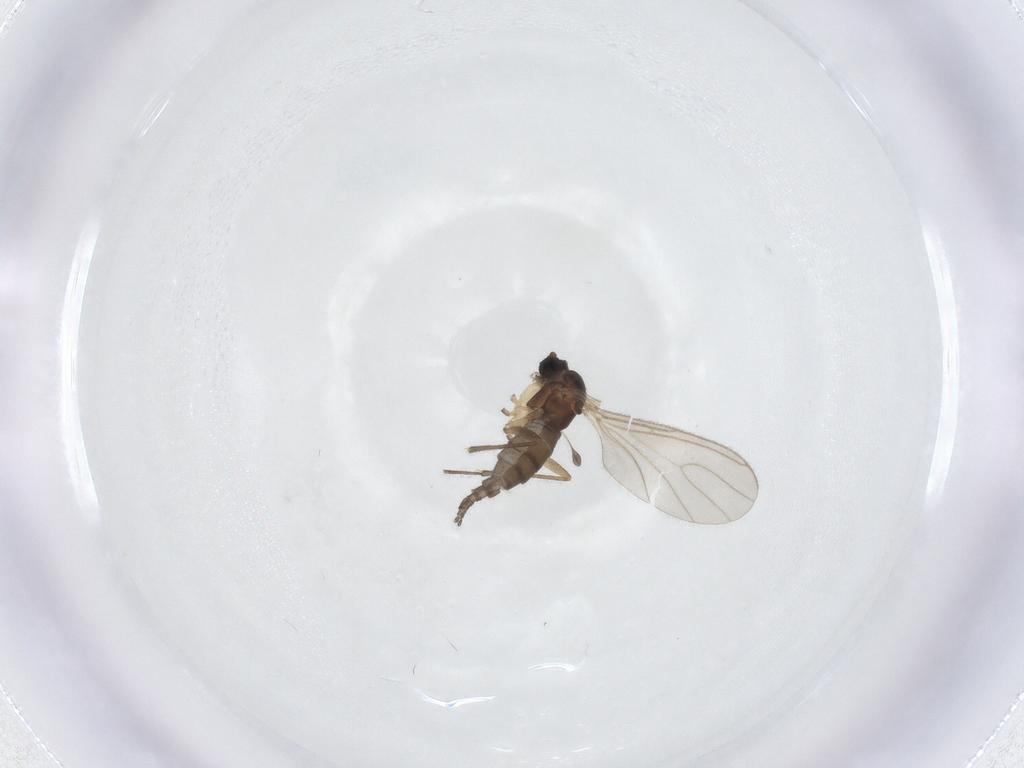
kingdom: Animalia
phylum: Arthropoda
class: Insecta
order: Diptera
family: Sciaridae
